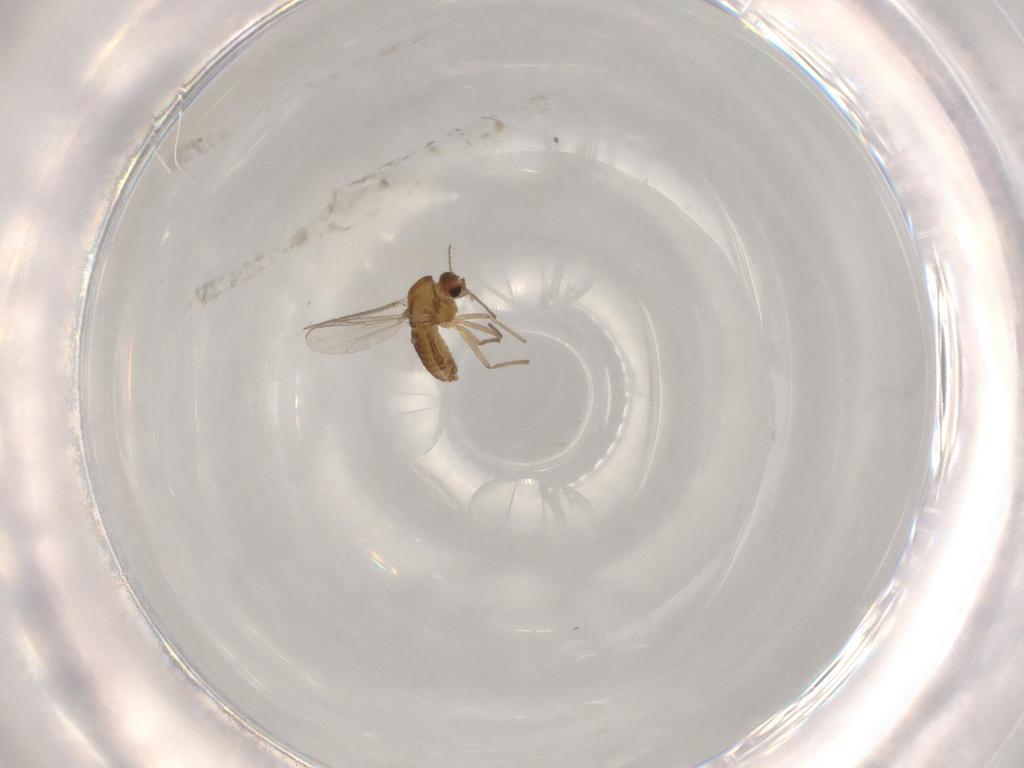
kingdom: Animalia
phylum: Arthropoda
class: Insecta
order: Diptera
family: Chironomidae
